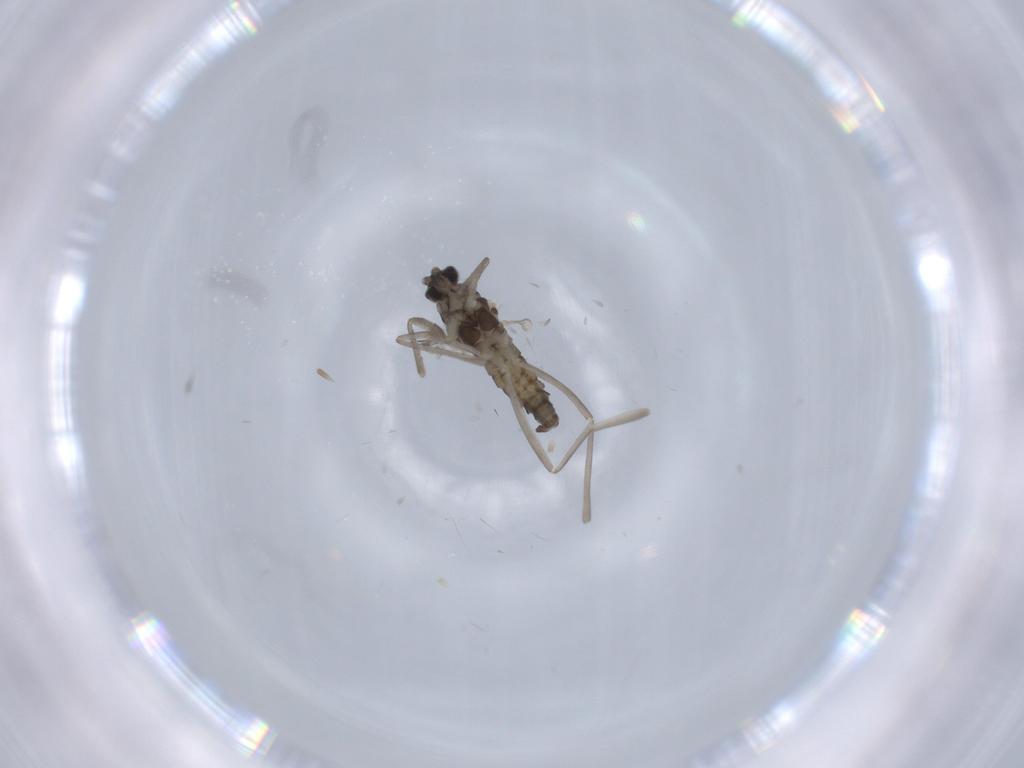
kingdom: Animalia
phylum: Arthropoda
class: Insecta
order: Diptera
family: Cecidomyiidae
